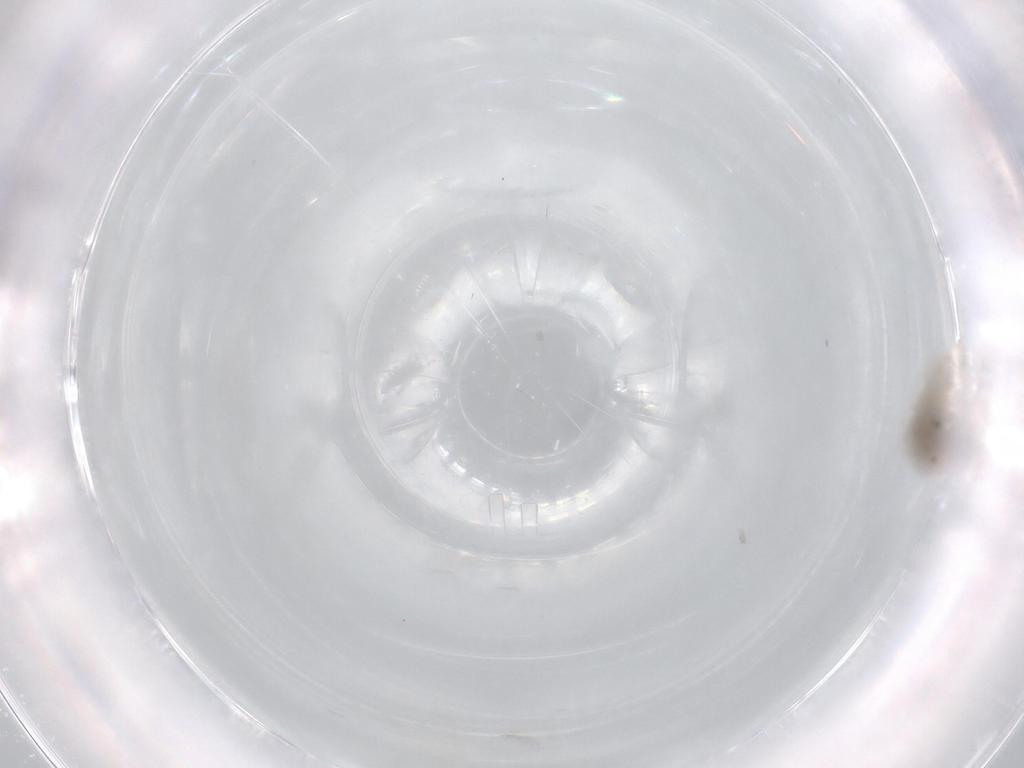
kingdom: Animalia
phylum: Arthropoda
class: Insecta
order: Diptera
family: Cecidomyiidae
